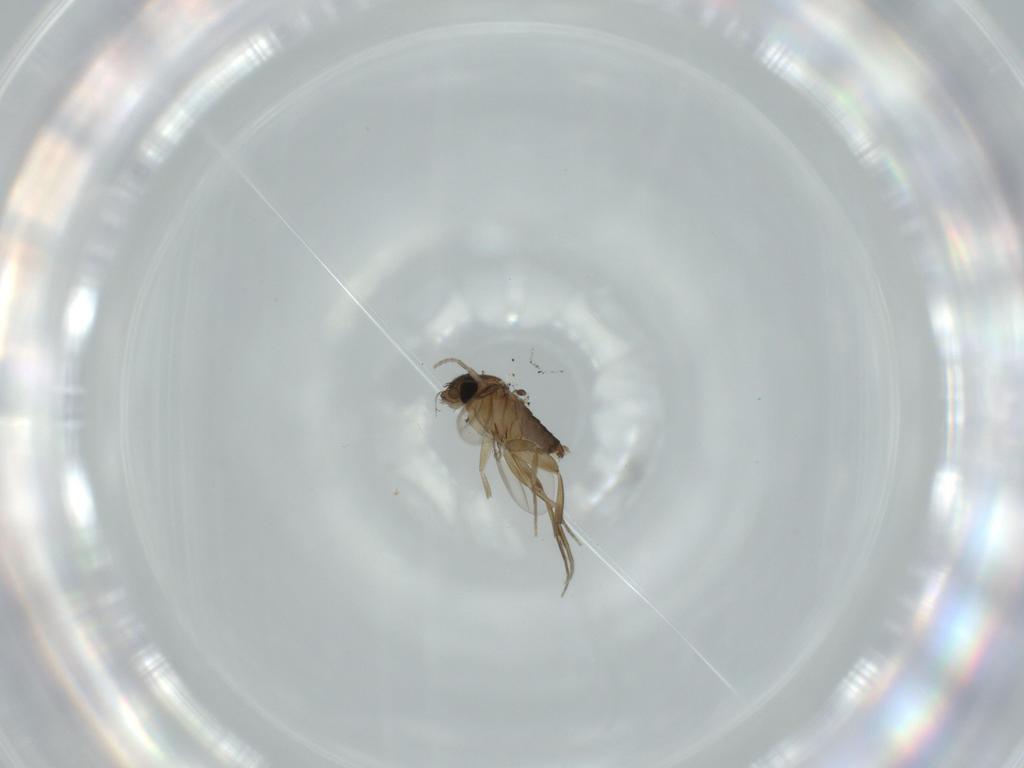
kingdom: Animalia
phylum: Arthropoda
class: Insecta
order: Diptera
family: Phoridae
